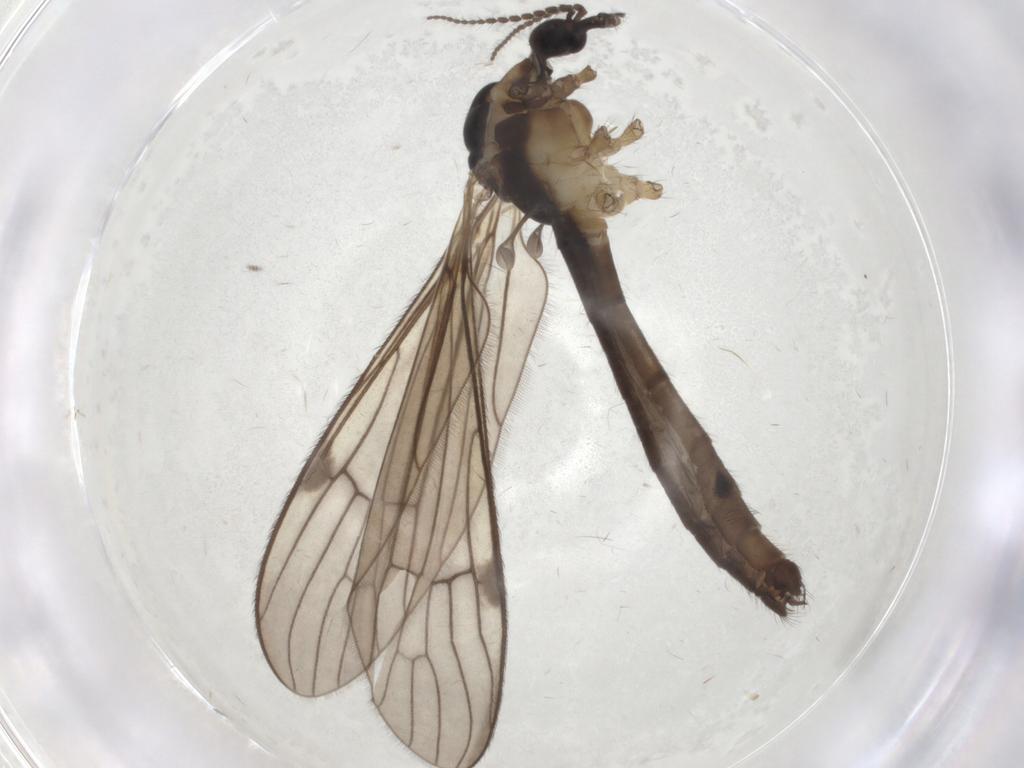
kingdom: Animalia
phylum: Arthropoda
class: Insecta
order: Diptera
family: Limoniidae
